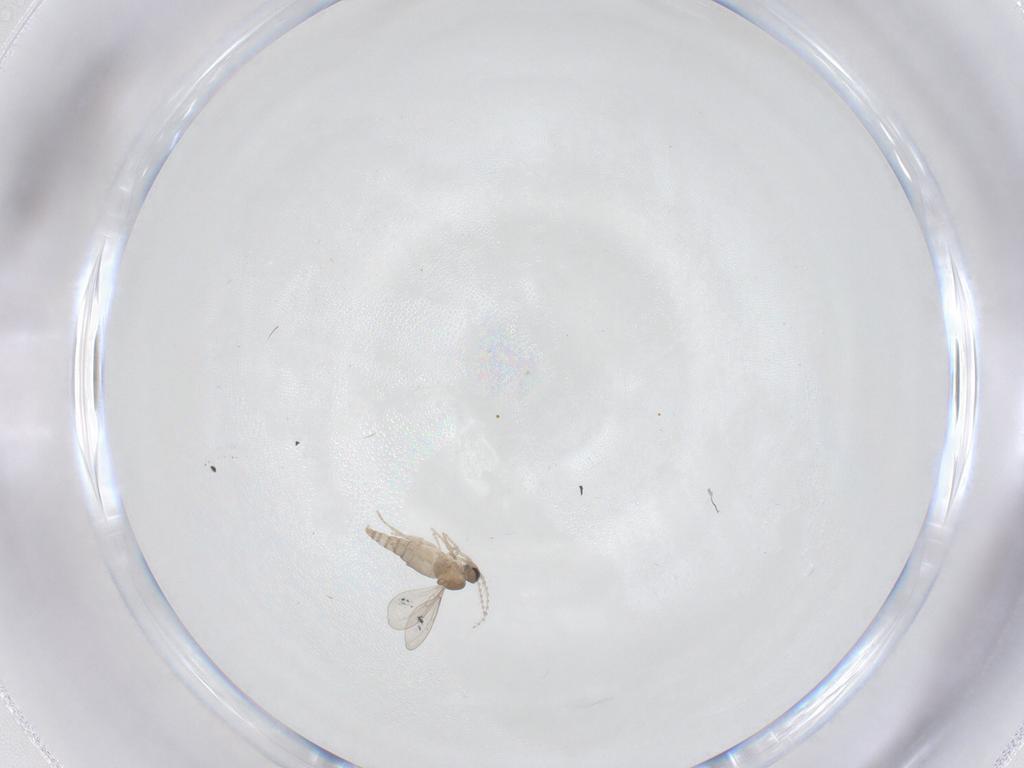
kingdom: Animalia
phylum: Arthropoda
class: Insecta
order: Diptera
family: Cecidomyiidae
